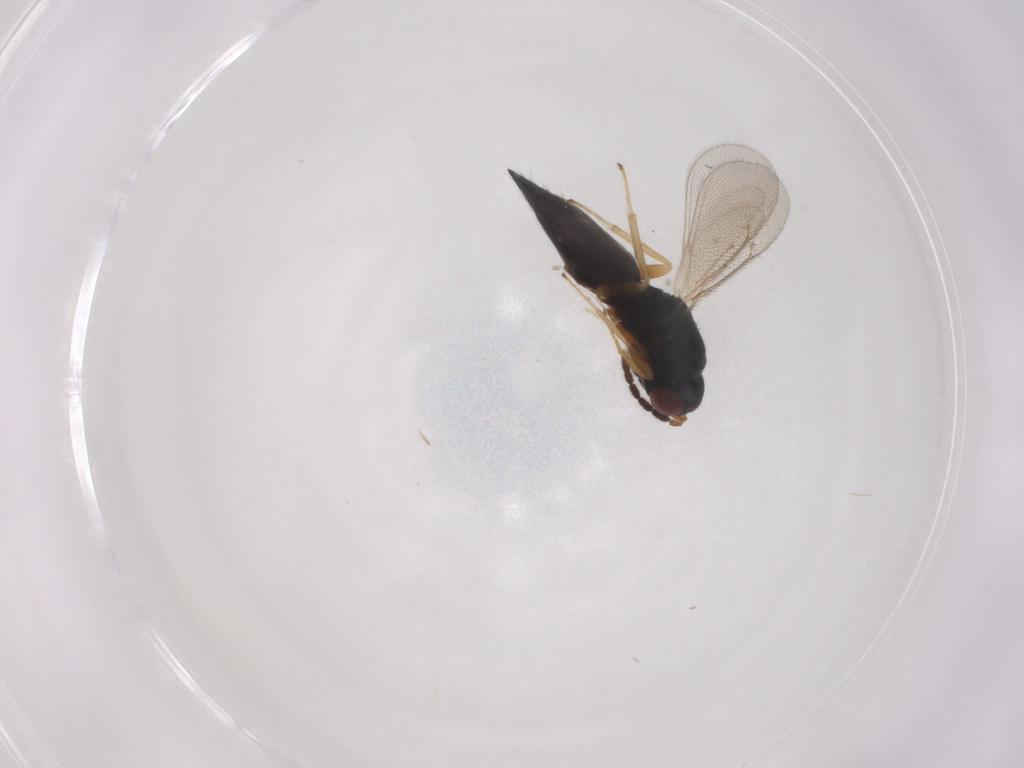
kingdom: Animalia
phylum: Arthropoda
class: Insecta
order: Hymenoptera
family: Eulophidae
